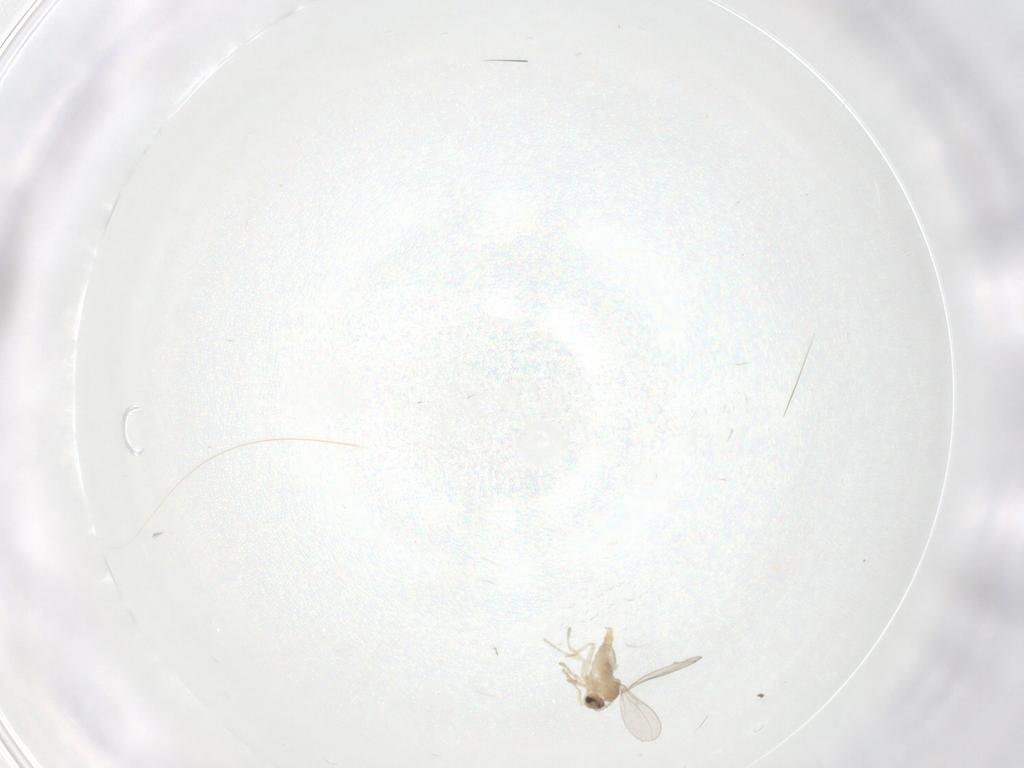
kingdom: Animalia
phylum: Arthropoda
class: Insecta
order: Diptera
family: Cecidomyiidae
